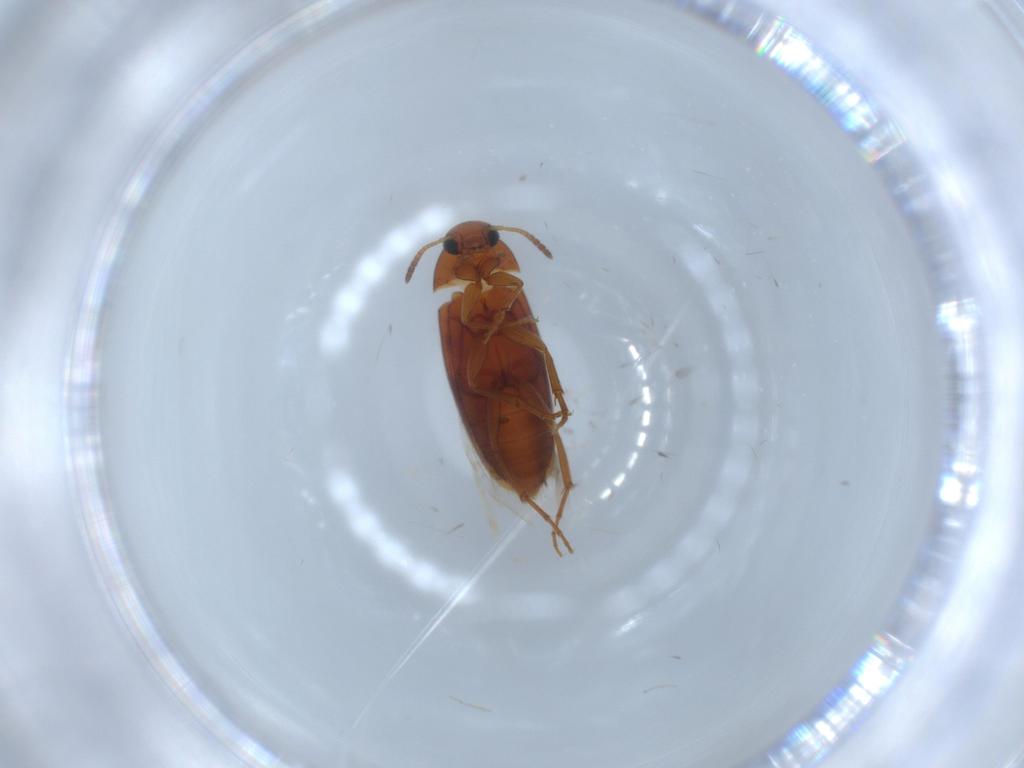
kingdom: Animalia
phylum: Arthropoda
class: Insecta
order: Coleoptera
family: Scraptiidae
